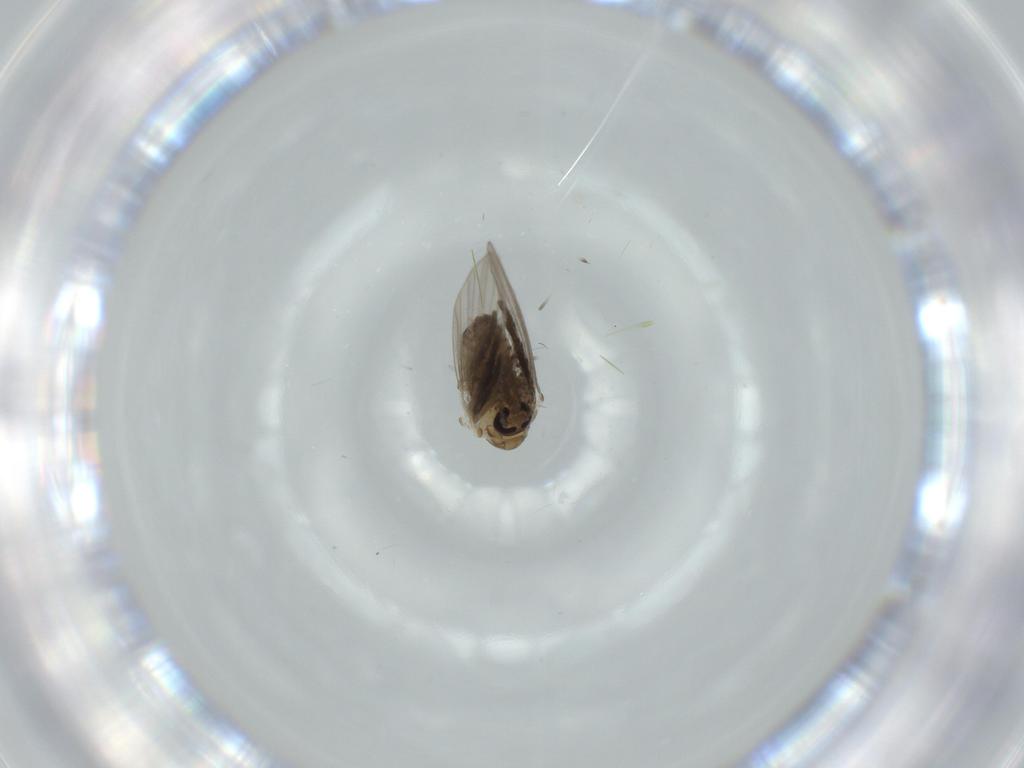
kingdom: Animalia
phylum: Arthropoda
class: Insecta
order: Diptera
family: Psychodidae
